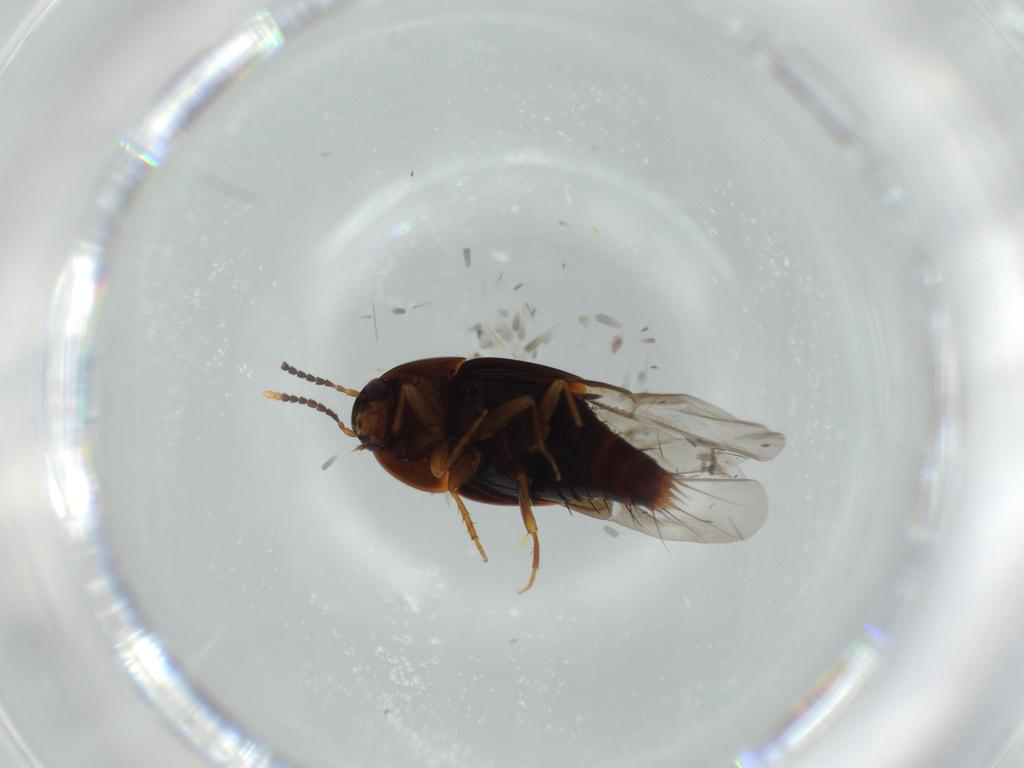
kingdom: Animalia
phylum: Arthropoda
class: Insecta
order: Coleoptera
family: Staphylinidae
